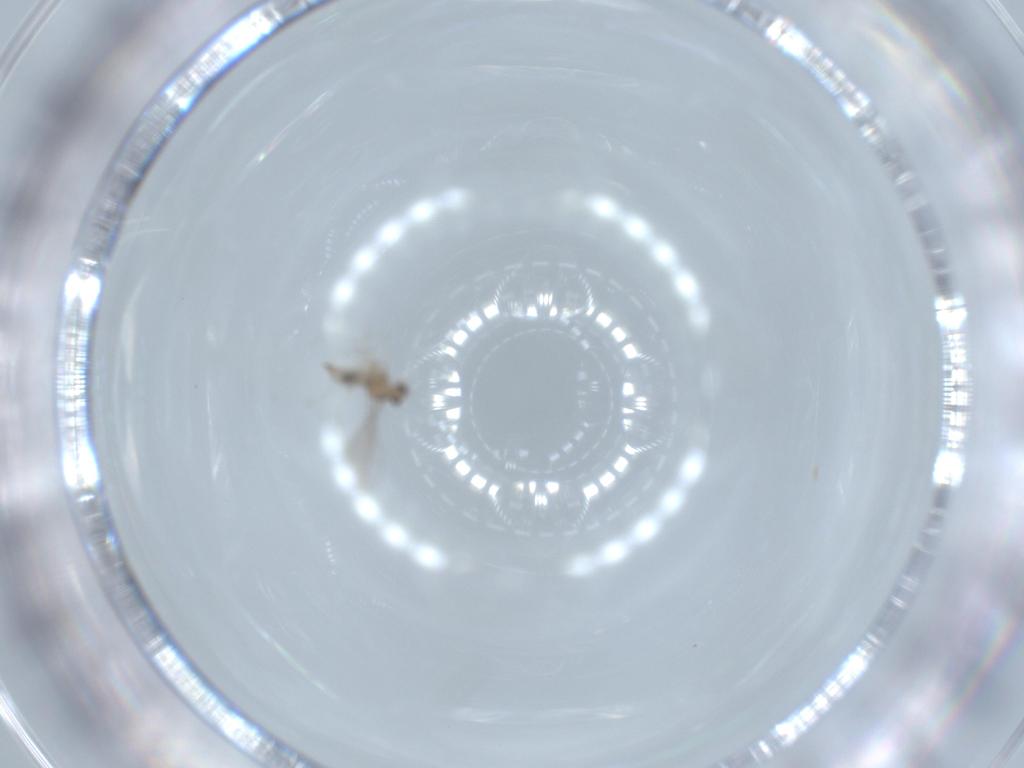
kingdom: Animalia
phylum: Arthropoda
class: Insecta
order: Diptera
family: Cecidomyiidae
